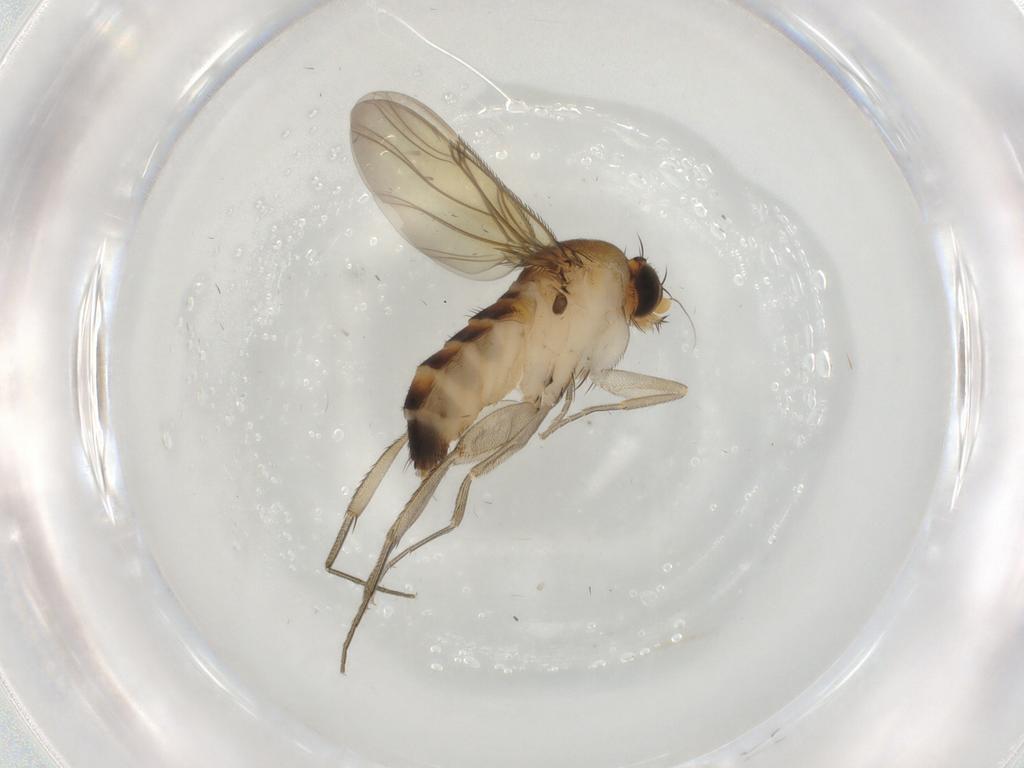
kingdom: Animalia
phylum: Arthropoda
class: Insecta
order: Diptera
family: Phoridae
